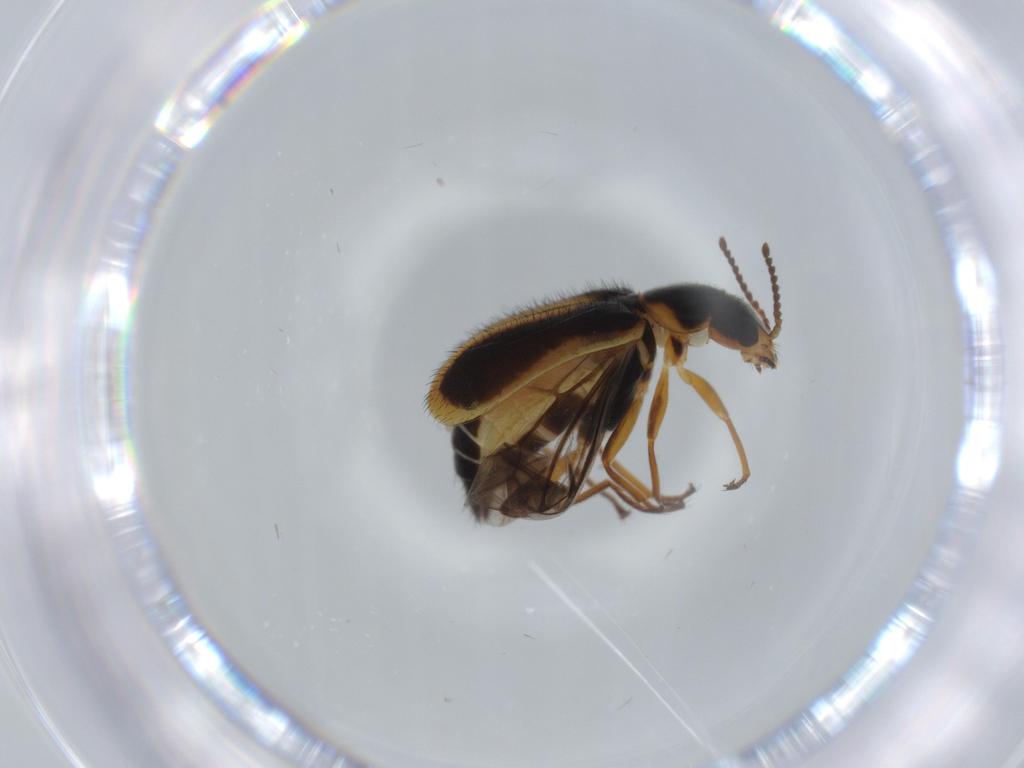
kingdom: Animalia
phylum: Arthropoda
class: Insecta
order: Coleoptera
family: Melyridae
